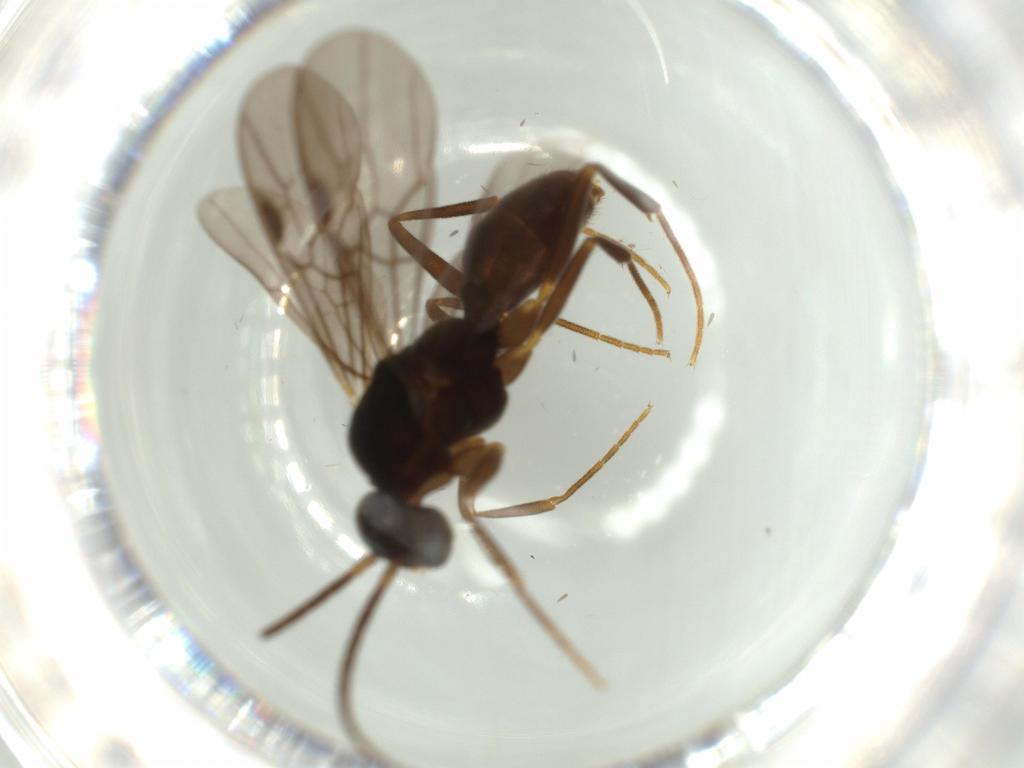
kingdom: Animalia
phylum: Arthropoda
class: Insecta
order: Hymenoptera
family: Formicidae
